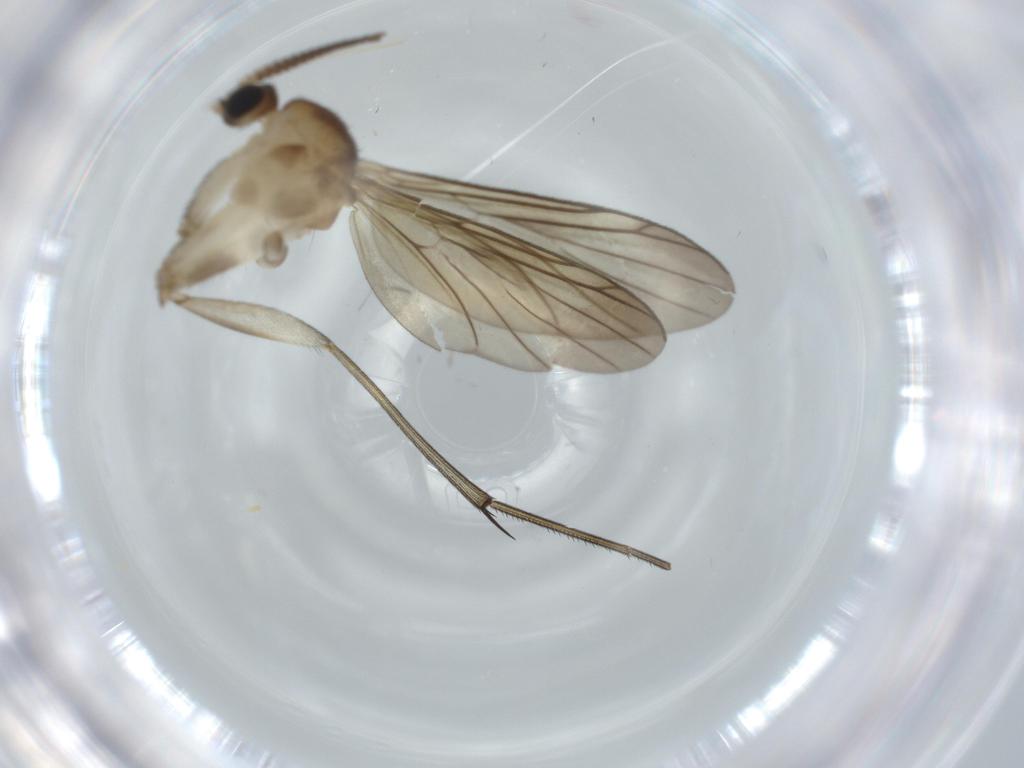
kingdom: Animalia
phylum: Arthropoda
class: Insecta
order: Diptera
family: Sciaridae
